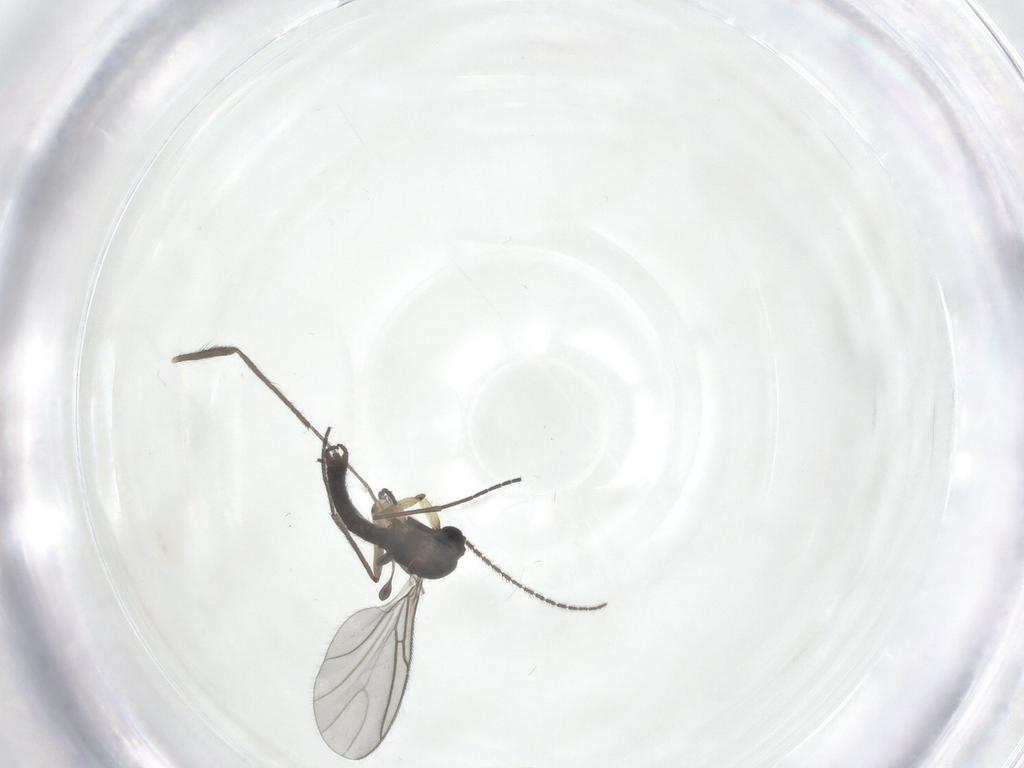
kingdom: Animalia
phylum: Arthropoda
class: Insecta
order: Diptera
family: Sciaridae
